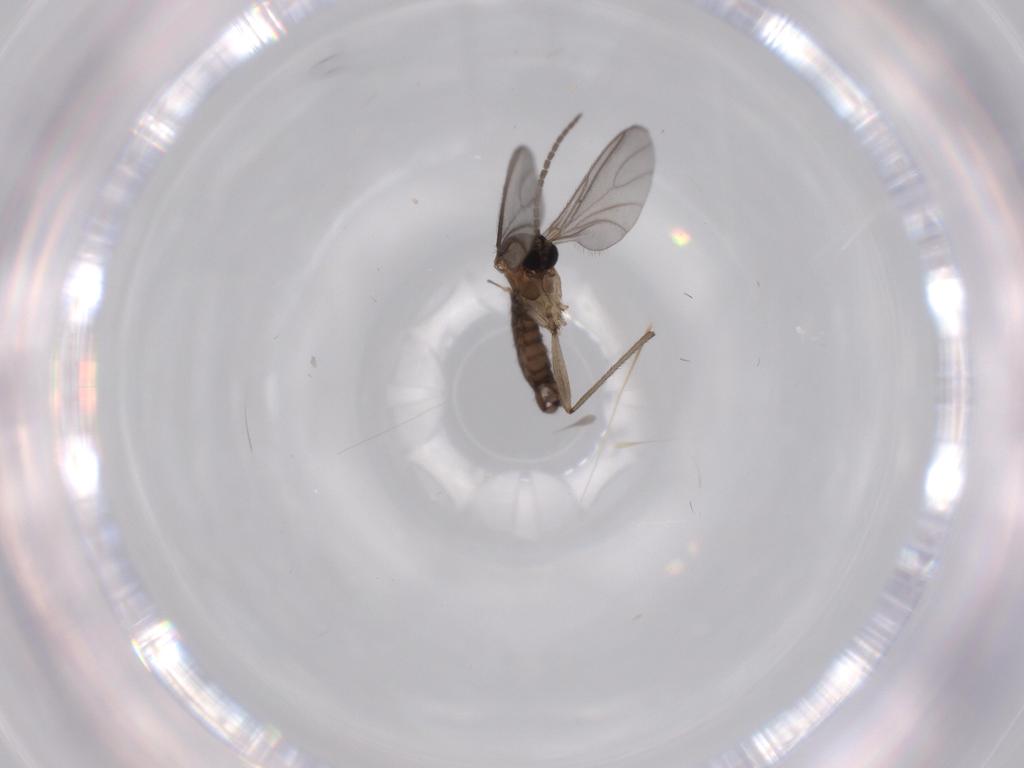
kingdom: Animalia
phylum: Arthropoda
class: Insecta
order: Diptera
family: Sciaridae
